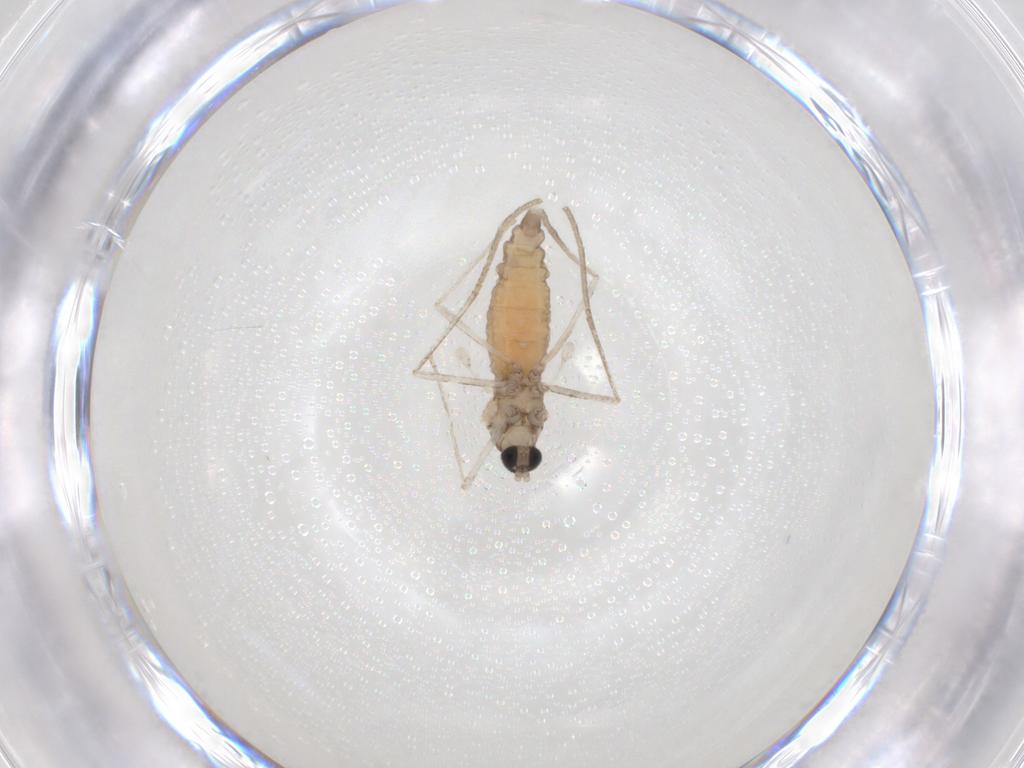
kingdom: Animalia
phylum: Arthropoda
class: Insecta
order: Diptera
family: Cecidomyiidae
